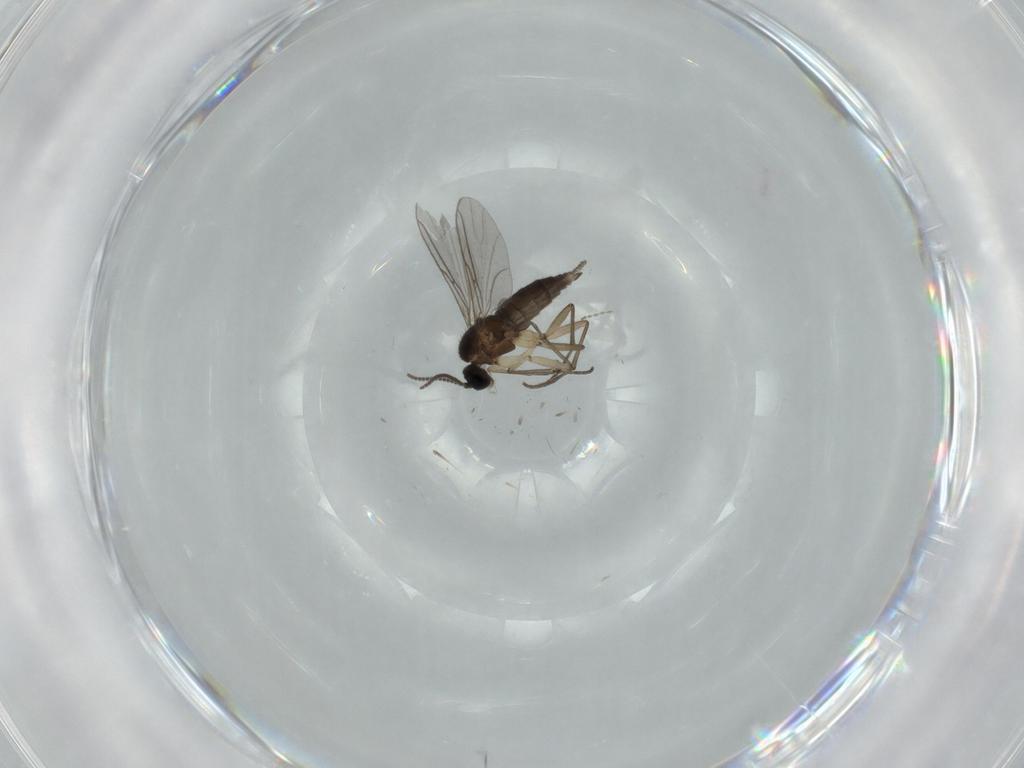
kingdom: Animalia
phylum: Arthropoda
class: Insecta
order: Diptera
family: Sciaridae
